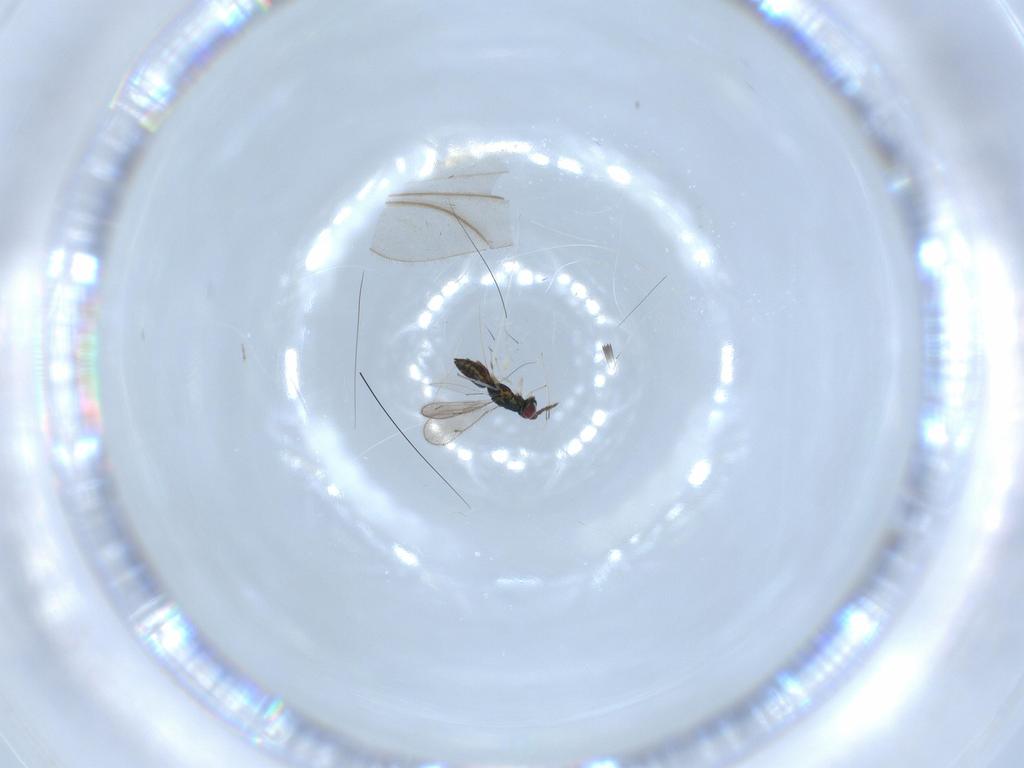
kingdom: Animalia
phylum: Arthropoda
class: Insecta
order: Hymenoptera
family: Eulophidae
